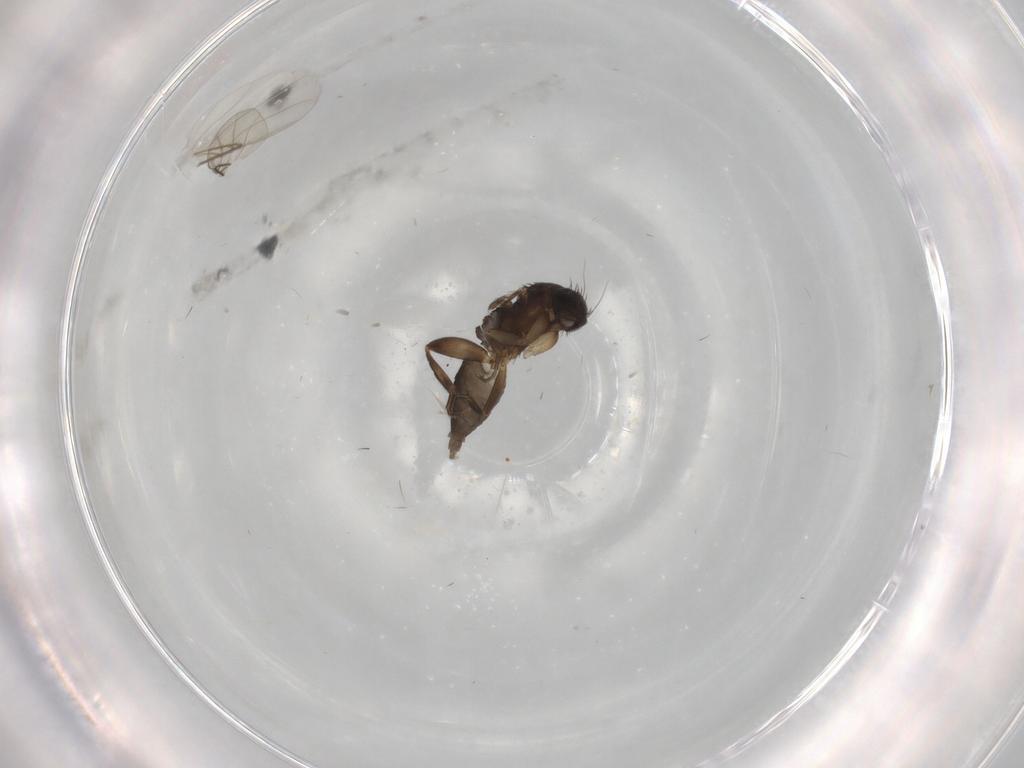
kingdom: Animalia
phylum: Arthropoda
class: Insecta
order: Diptera
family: Phoridae
